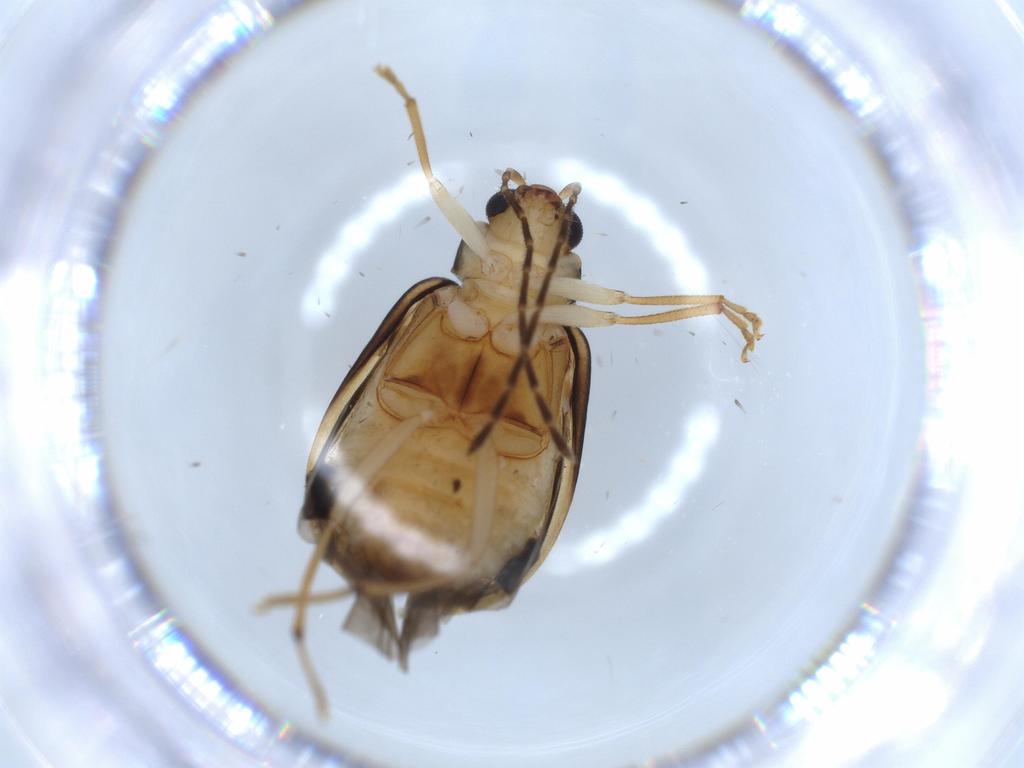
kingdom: Animalia
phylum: Arthropoda
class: Insecta
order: Coleoptera
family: Chrysomelidae
